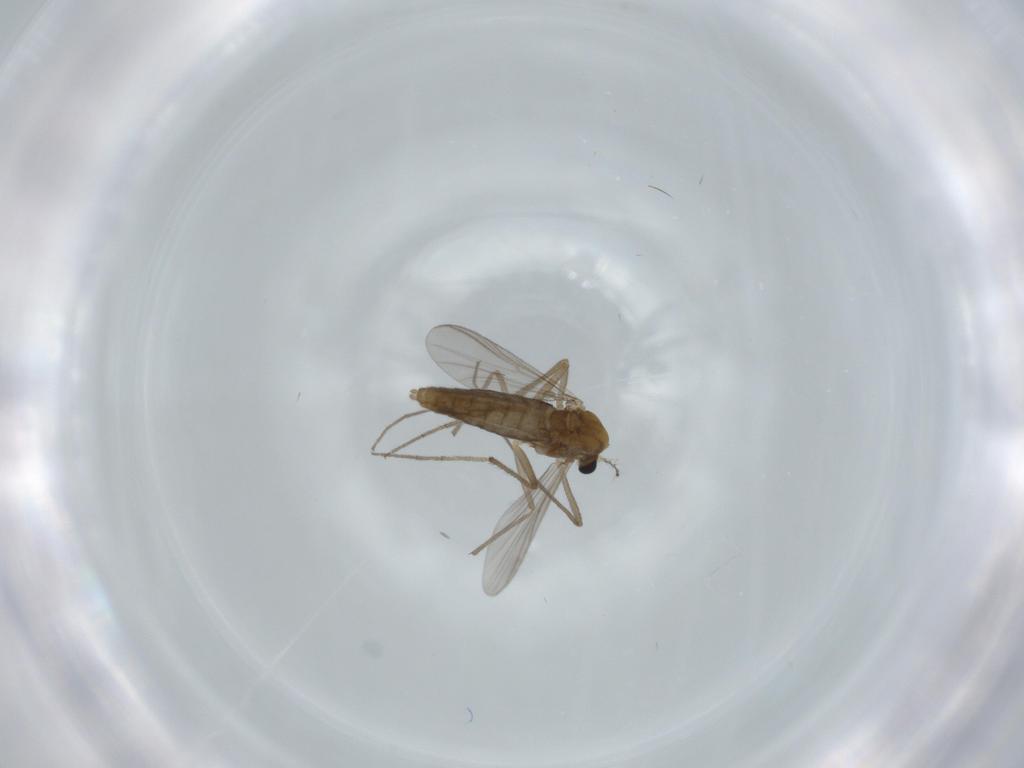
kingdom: Animalia
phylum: Arthropoda
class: Insecta
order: Diptera
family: Chironomidae
